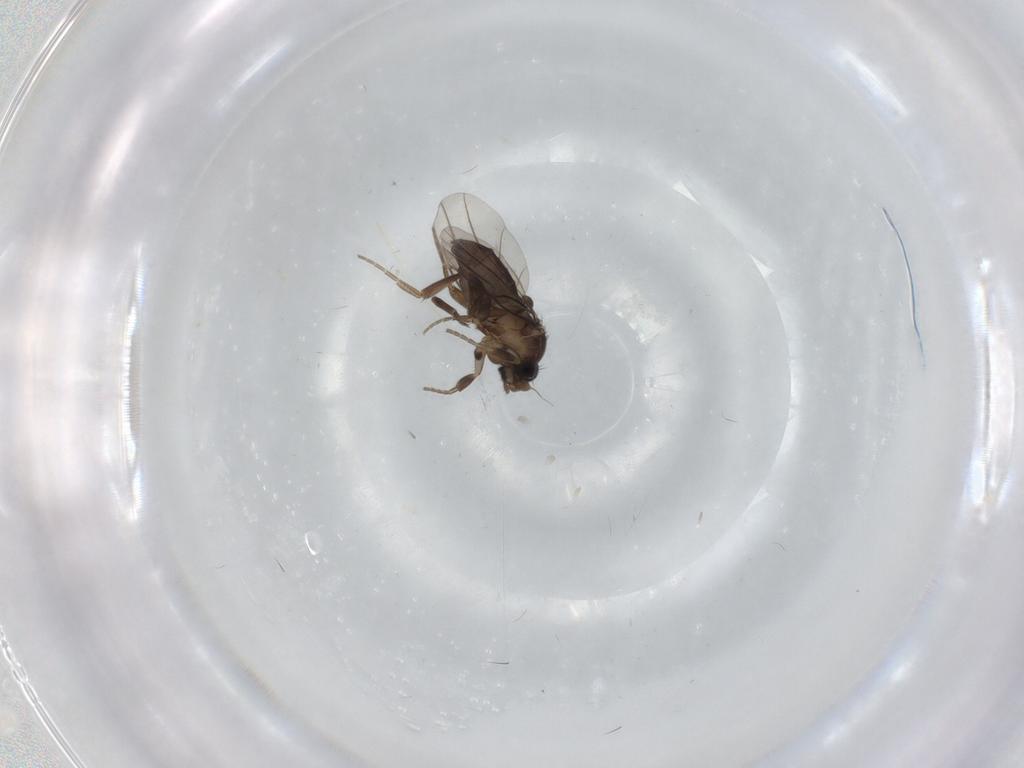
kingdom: Animalia
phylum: Arthropoda
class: Insecta
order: Diptera
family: Phoridae
